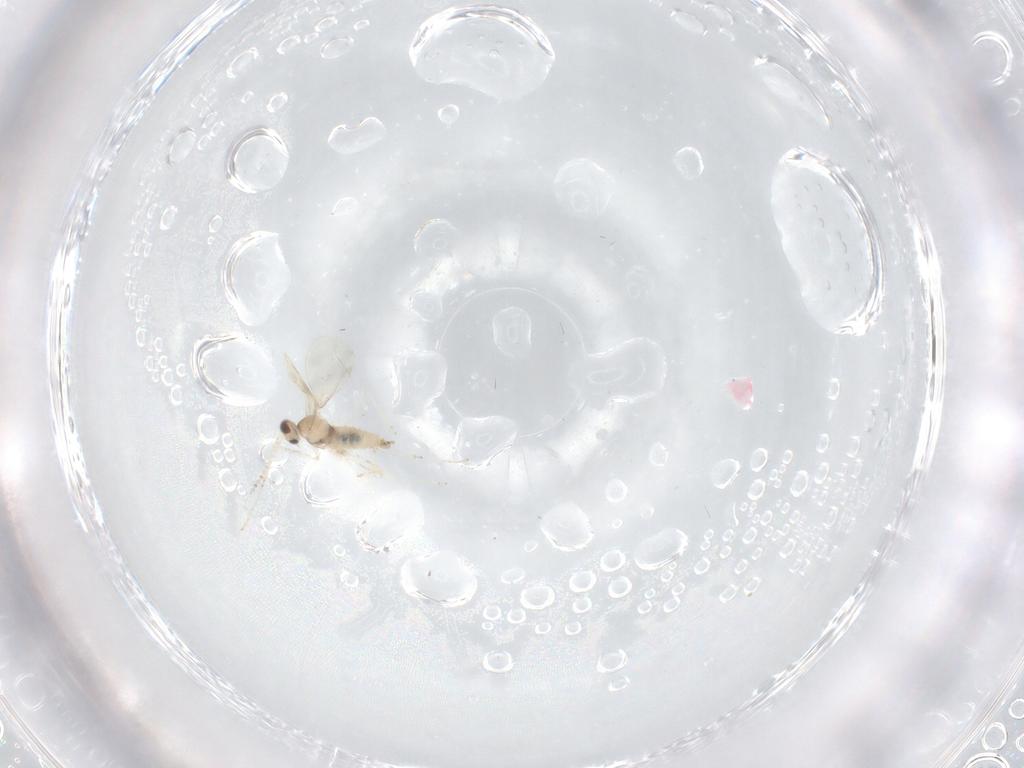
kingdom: Animalia
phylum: Arthropoda
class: Insecta
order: Diptera
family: Cecidomyiidae
